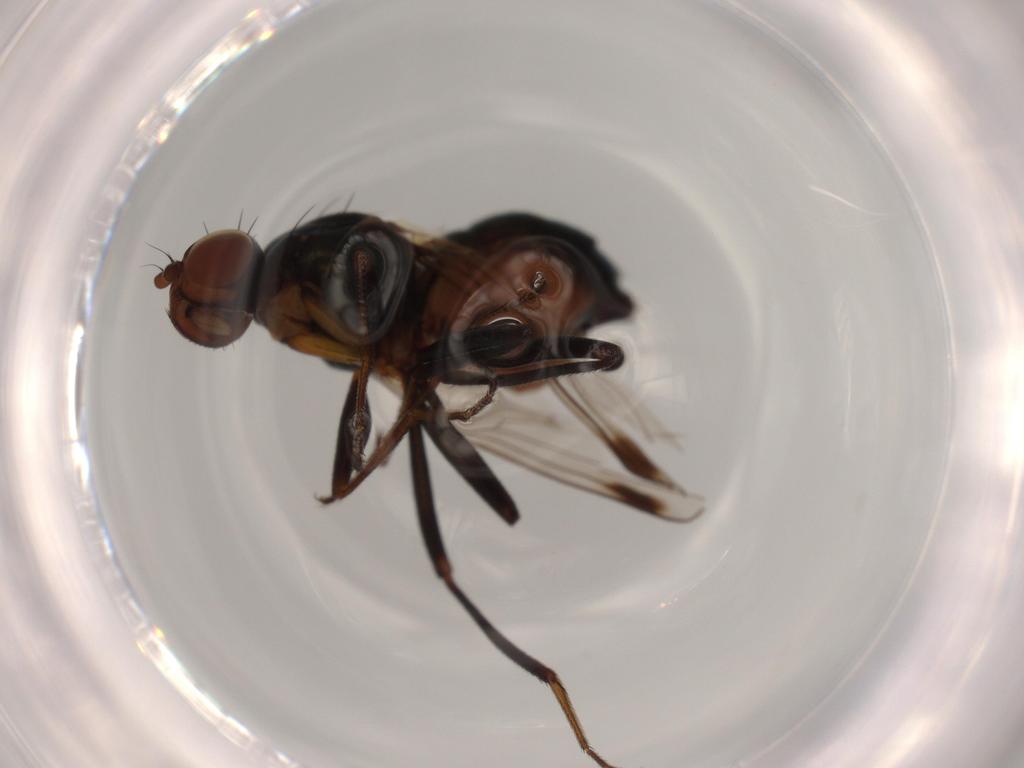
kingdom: Animalia
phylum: Arthropoda
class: Insecta
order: Diptera
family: Sepsidae
